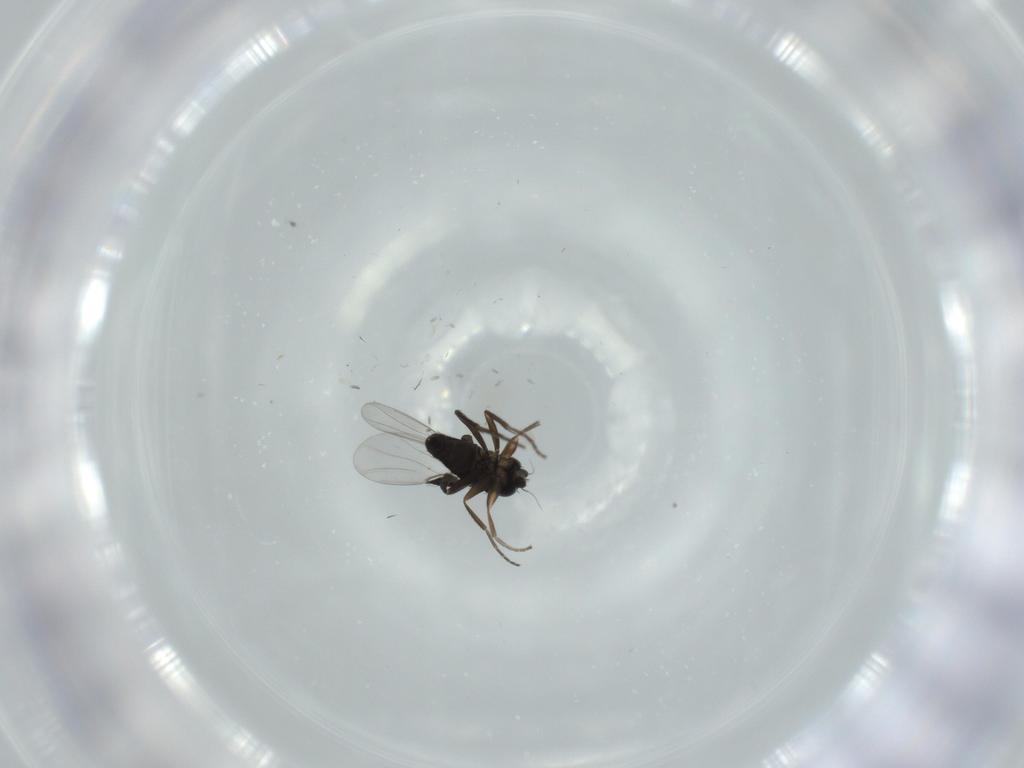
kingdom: Animalia
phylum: Arthropoda
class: Insecta
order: Diptera
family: Phoridae
